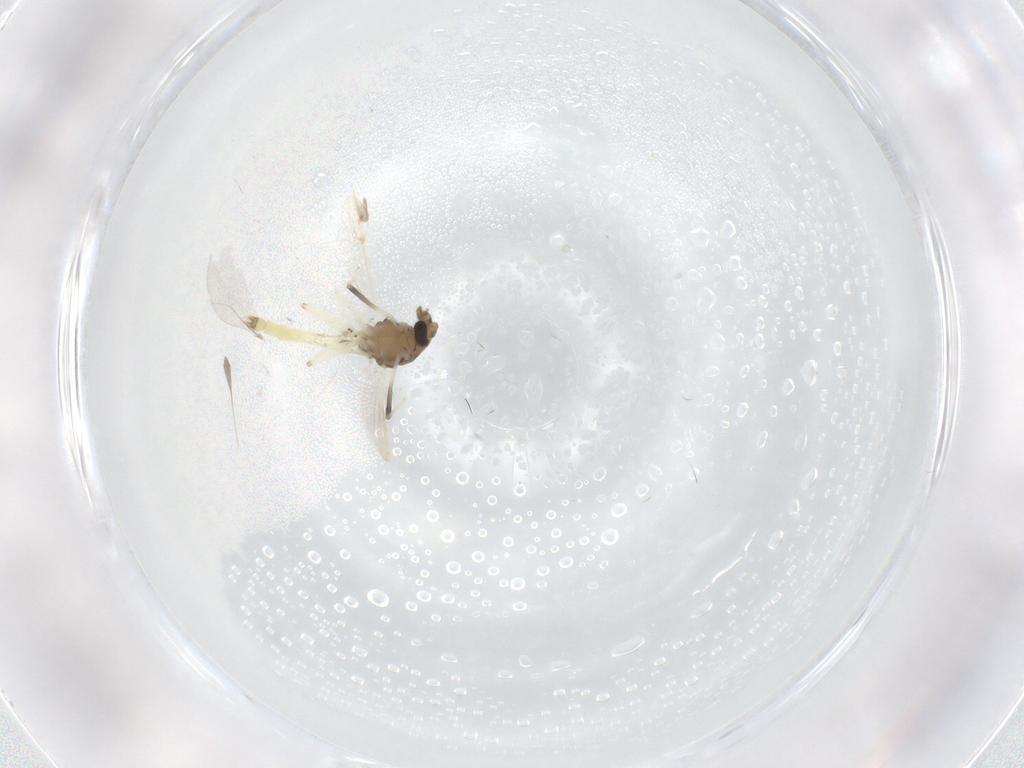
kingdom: Animalia
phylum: Arthropoda
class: Insecta
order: Diptera
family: Chironomidae
